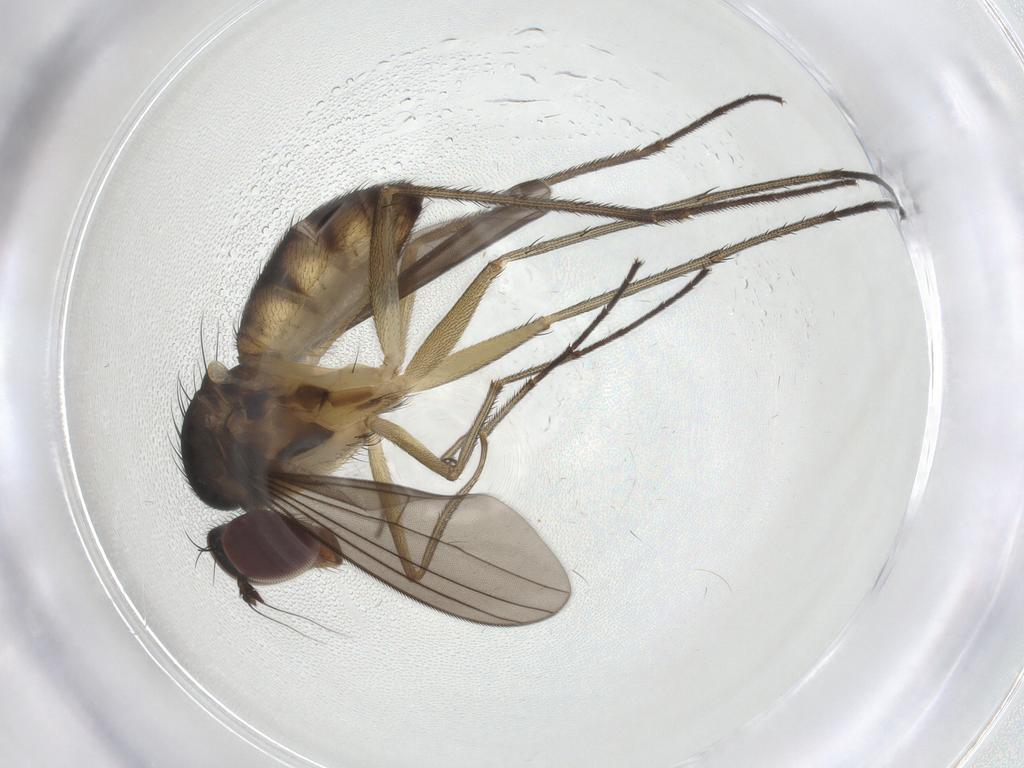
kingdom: Animalia
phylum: Arthropoda
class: Insecta
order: Diptera
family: Dolichopodidae
